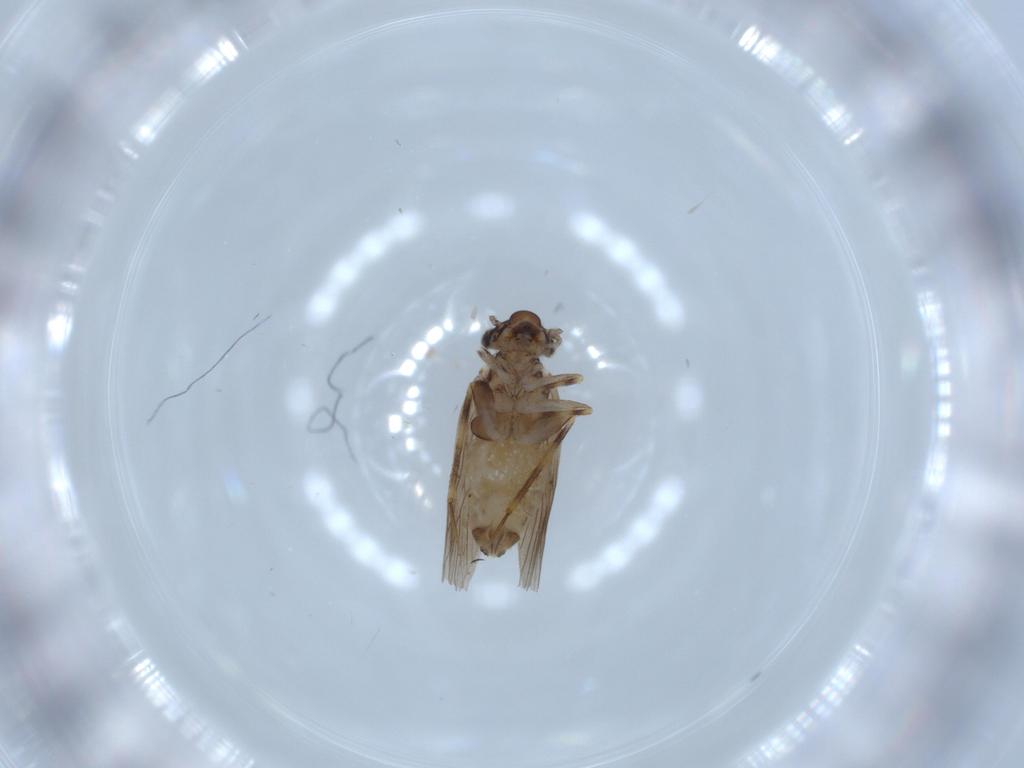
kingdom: Animalia
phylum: Arthropoda
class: Insecta
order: Psocodea
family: Lepidopsocidae
